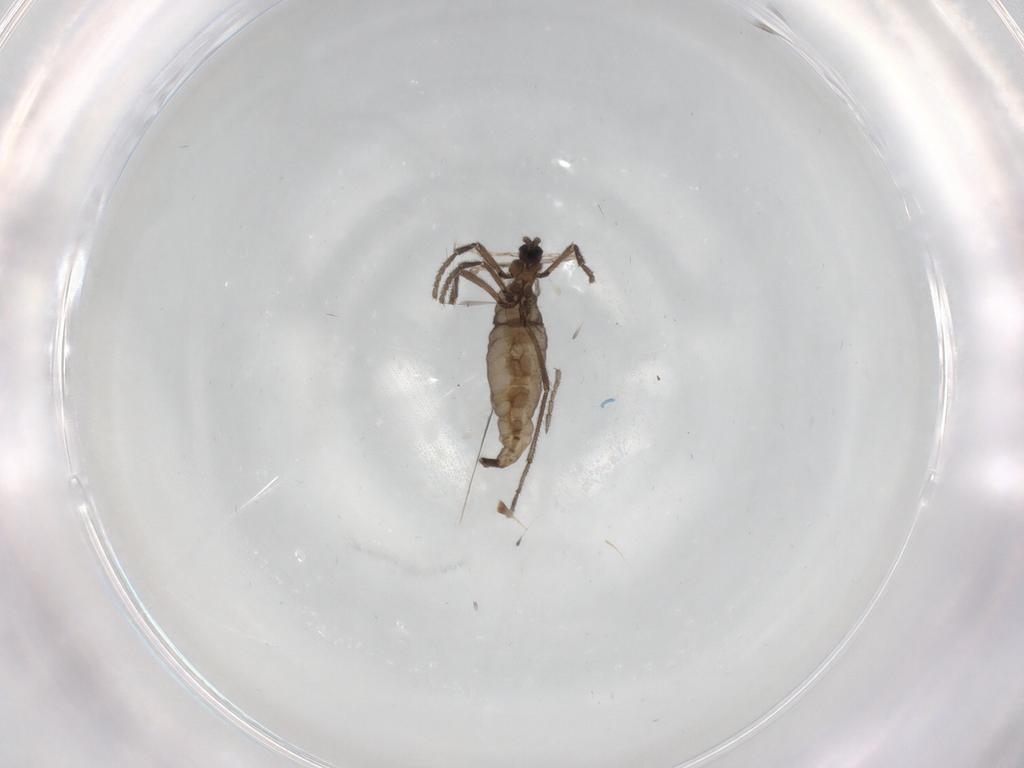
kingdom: Animalia
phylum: Arthropoda
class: Insecta
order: Diptera
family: Sciaridae
